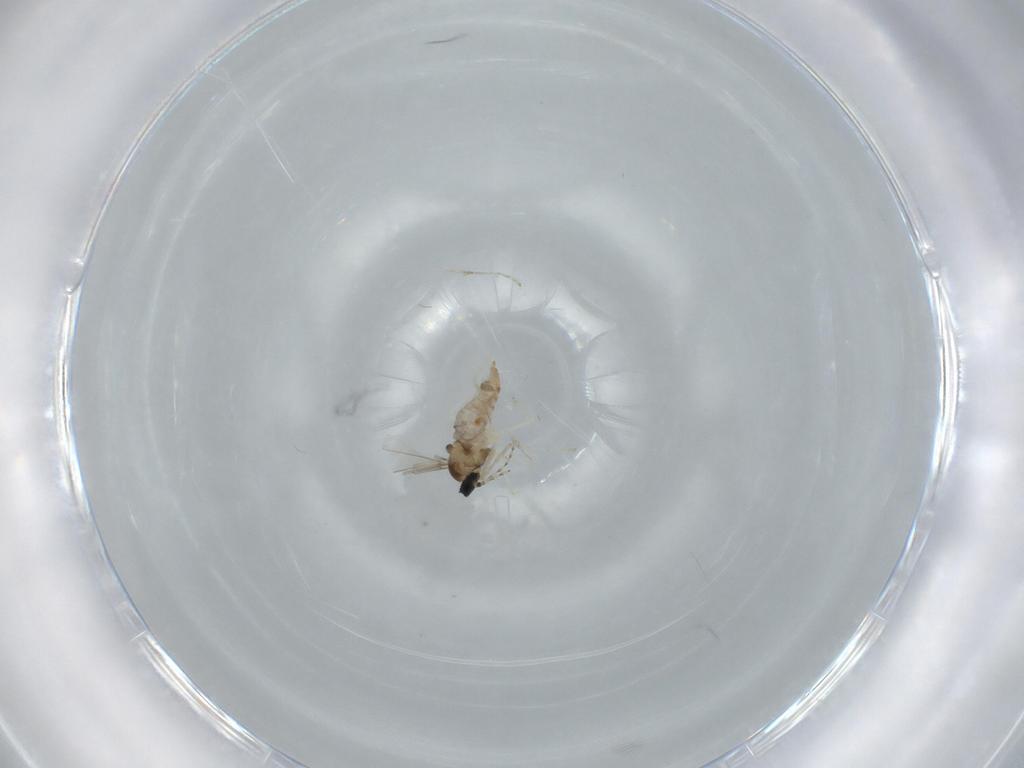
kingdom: Animalia
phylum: Arthropoda
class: Insecta
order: Diptera
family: Cecidomyiidae
